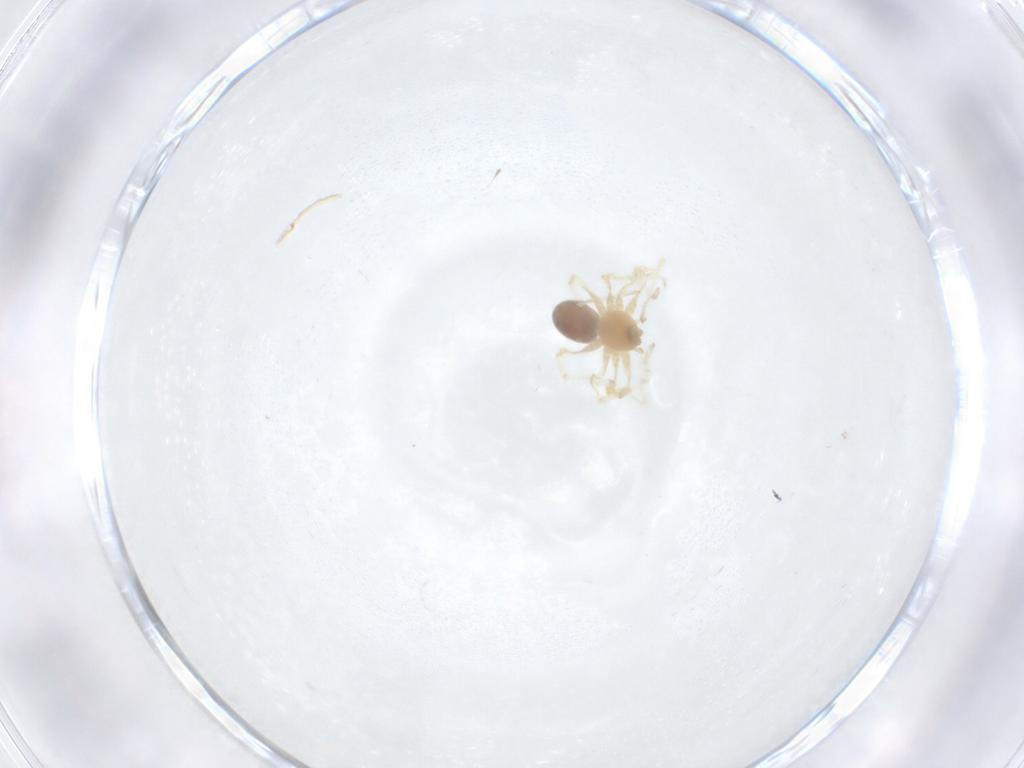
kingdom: Animalia
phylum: Arthropoda
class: Arachnida
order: Araneae
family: Pholcidae
